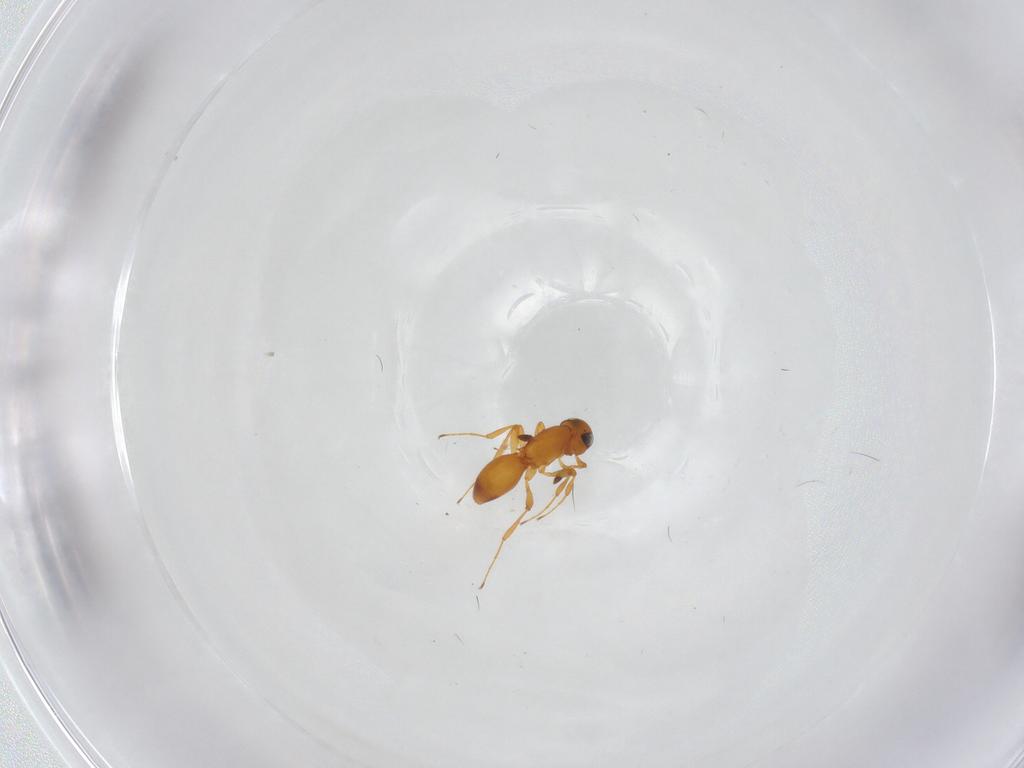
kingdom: Animalia
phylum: Arthropoda
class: Insecta
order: Hymenoptera
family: Platygastridae
